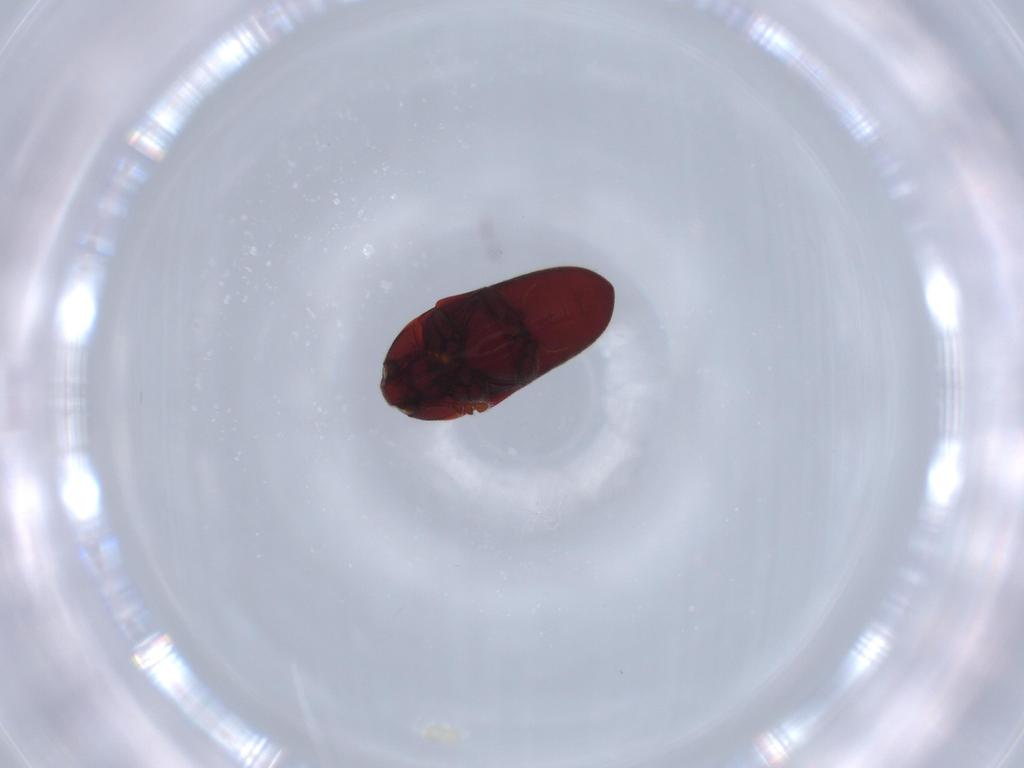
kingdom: Animalia
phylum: Arthropoda
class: Insecta
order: Coleoptera
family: Throscidae
